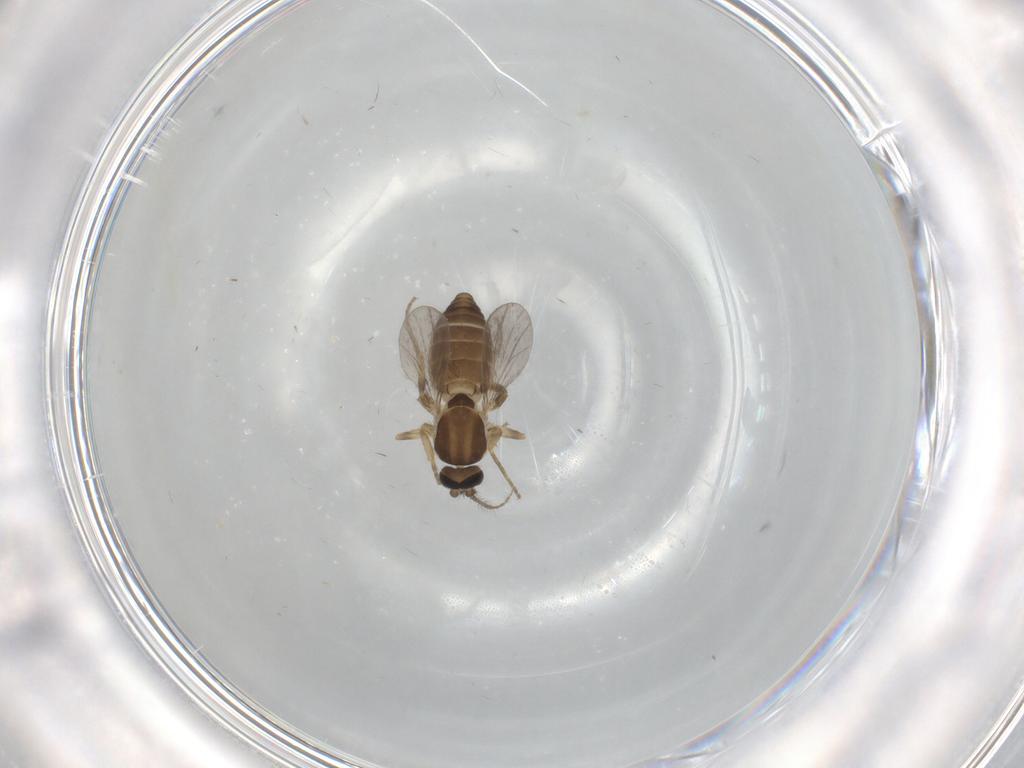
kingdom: Animalia
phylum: Arthropoda
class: Insecta
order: Diptera
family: Ceratopogonidae
